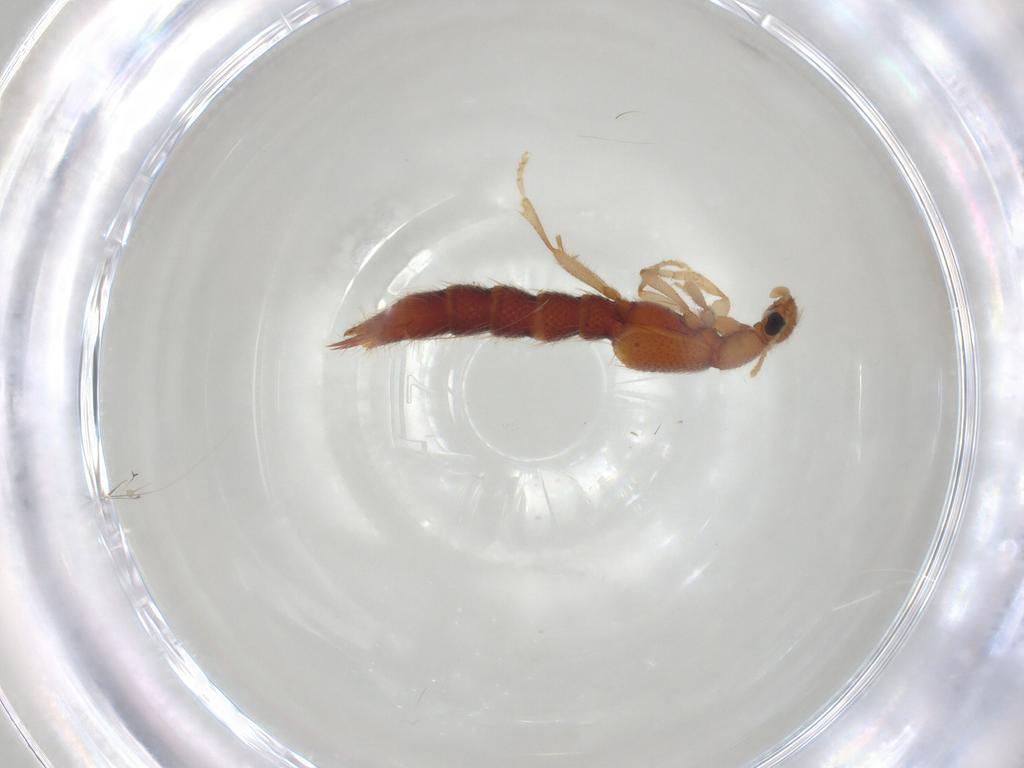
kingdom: Animalia
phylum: Arthropoda
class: Insecta
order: Coleoptera
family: Staphylinidae
